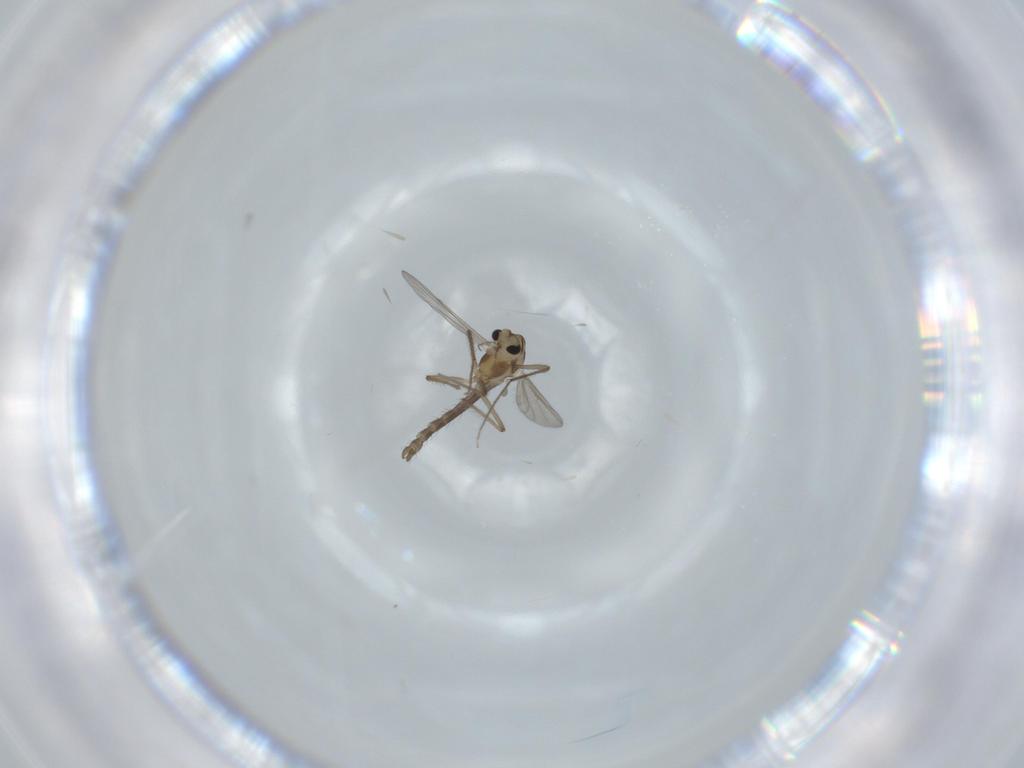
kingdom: Animalia
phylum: Arthropoda
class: Insecta
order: Diptera
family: Chironomidae
